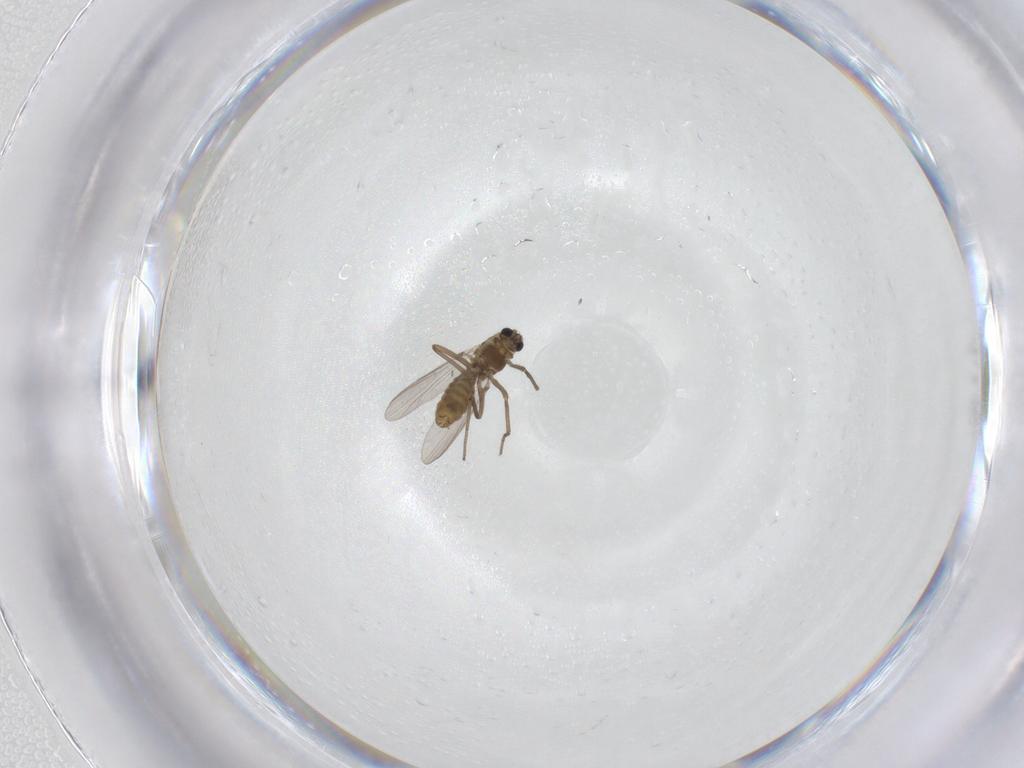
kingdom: Animalia
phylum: Arthropoda
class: Insecta
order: Diptera
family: Chironomidae
